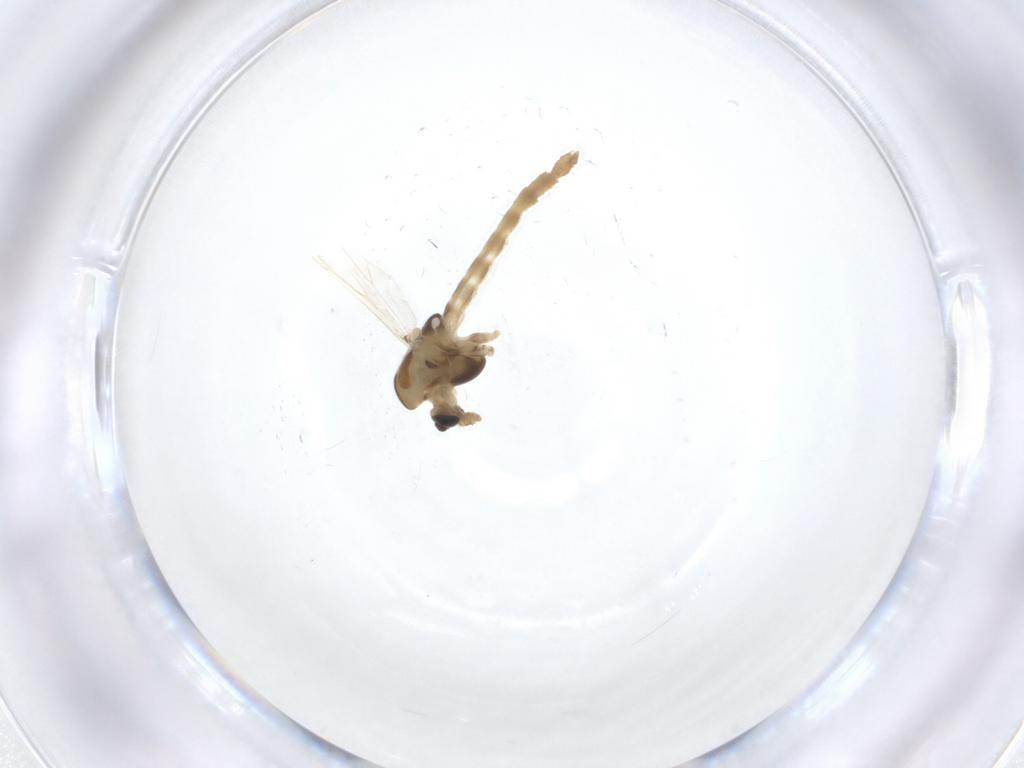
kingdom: Animalia
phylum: Arthropoda
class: Insecta
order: Diptera
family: Chironomidae
